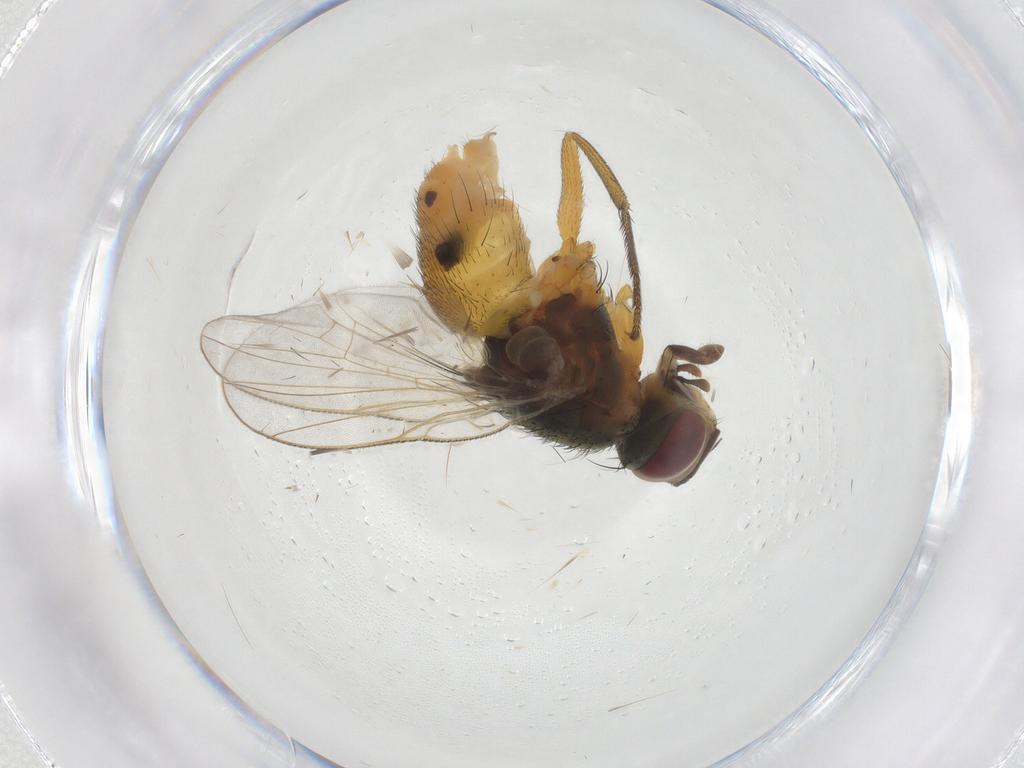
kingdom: Animalia
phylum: Arthropoda
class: Insecta
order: Diptera
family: Muscidae
